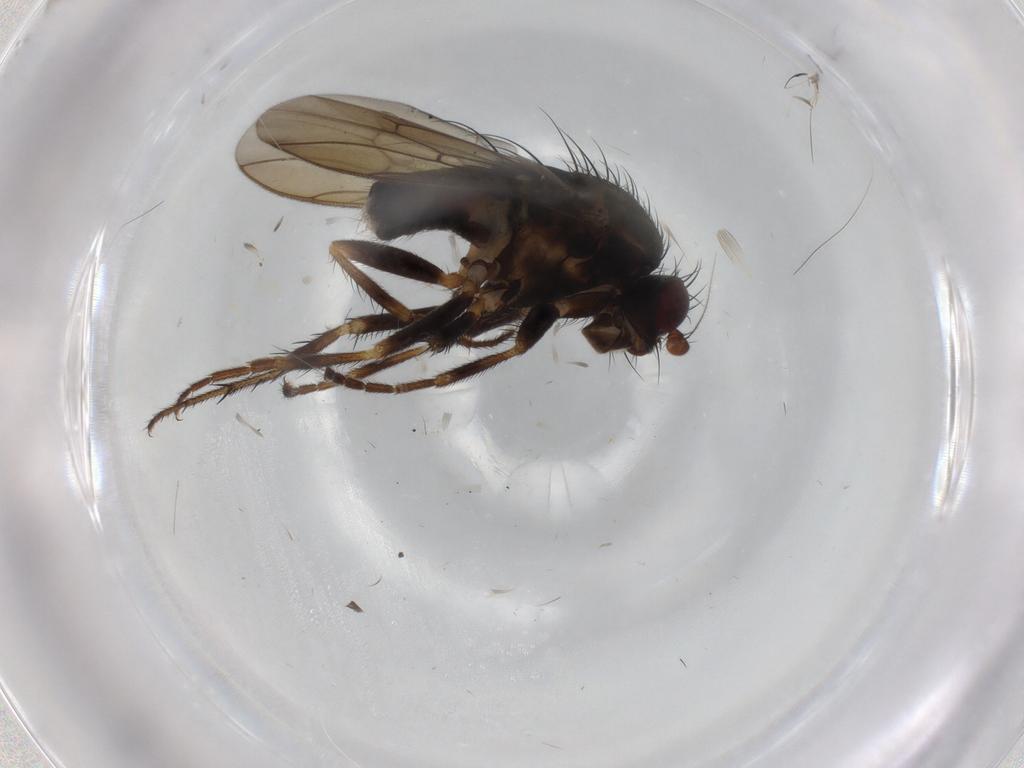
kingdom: Animalia
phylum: Arthropoda
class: Insecta
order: Diptera
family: Sphaeroceridae
